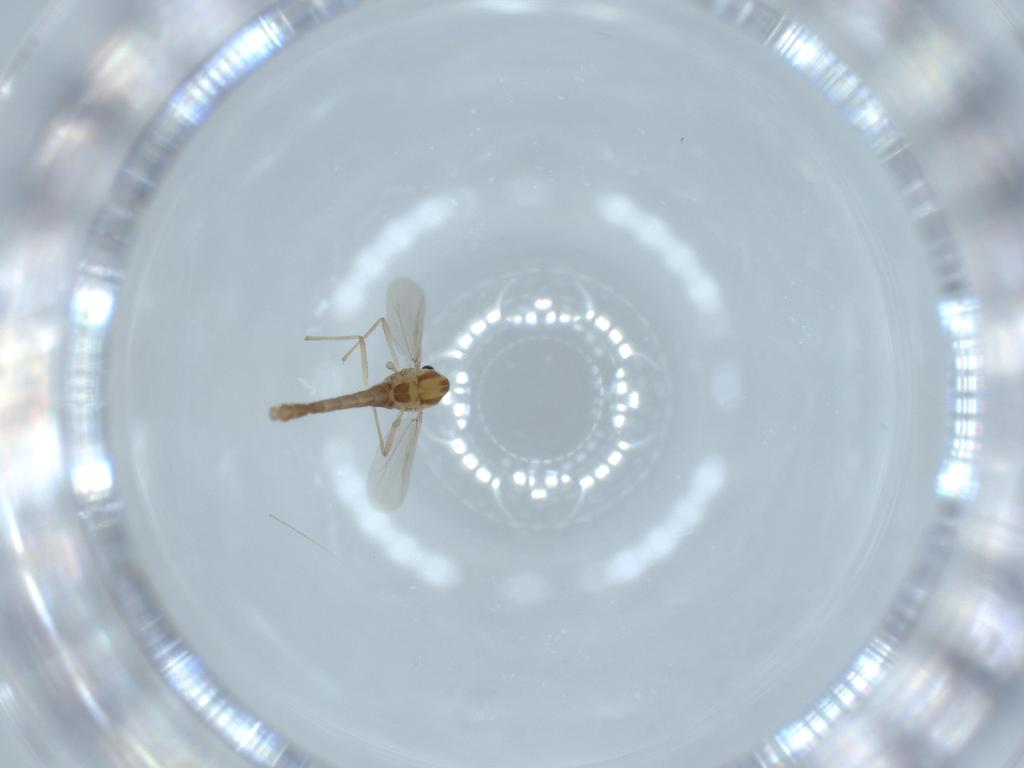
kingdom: Animalia
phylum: Arthropoda
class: Insecta
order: Diptera
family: Chironomidae
